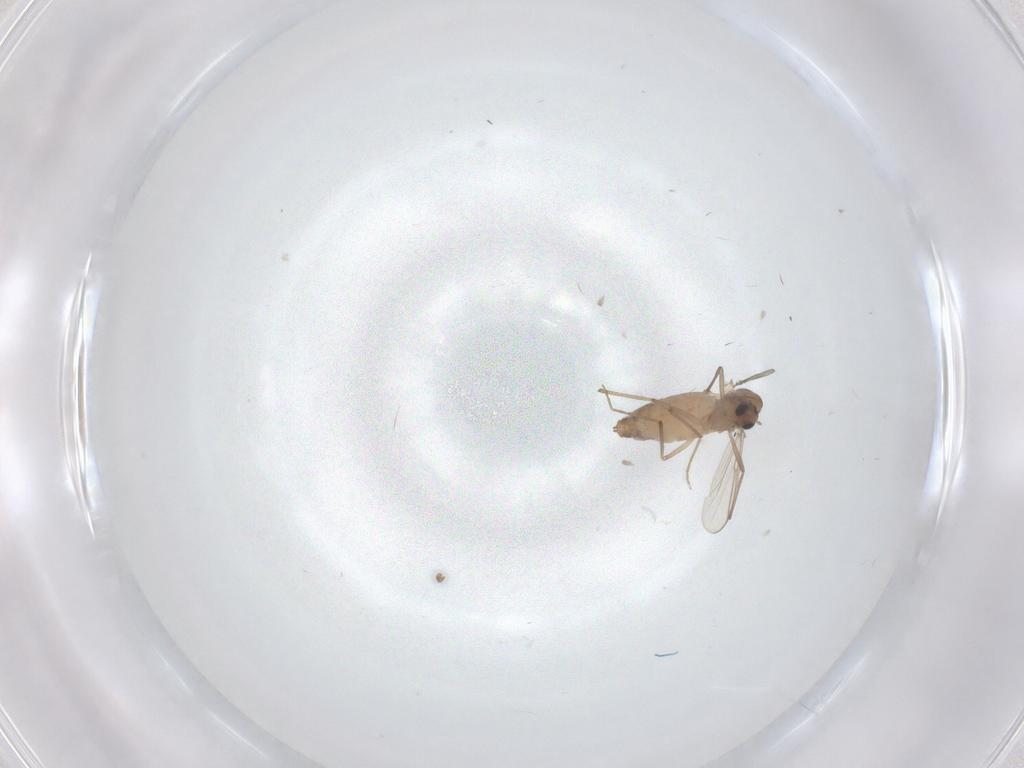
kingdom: Animalia
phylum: Arthropoda
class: Insecta
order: Diptera
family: Chironomidae
